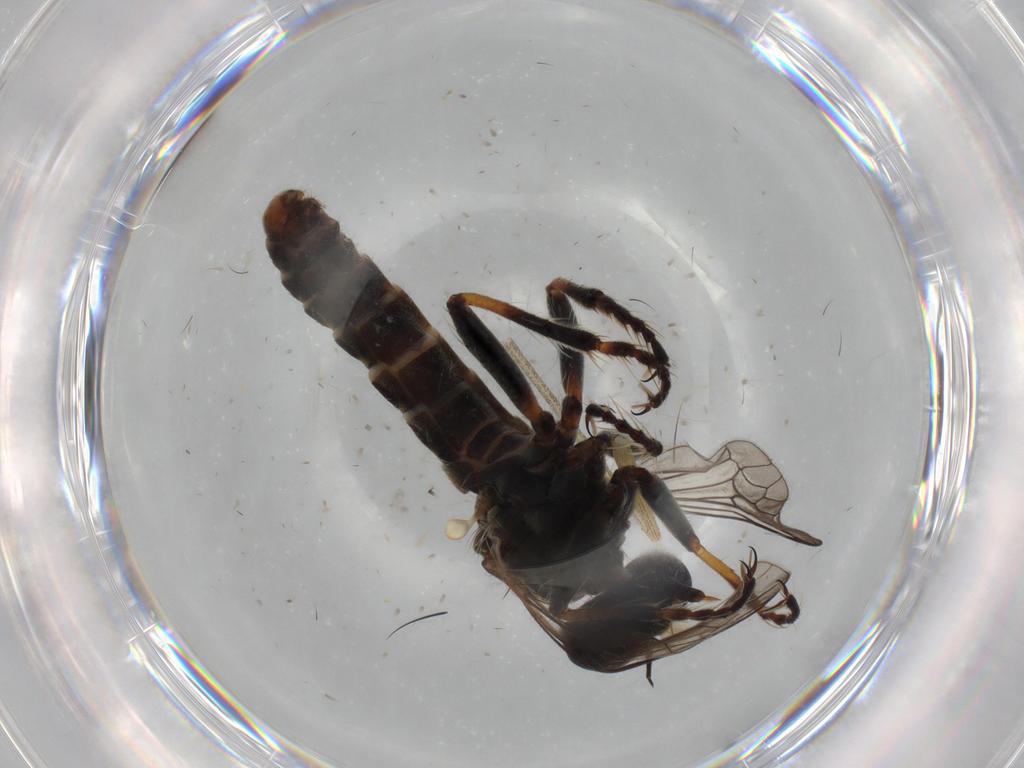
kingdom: Animalia
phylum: Arthropoda
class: Insecta
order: Diptera
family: Phoridae
